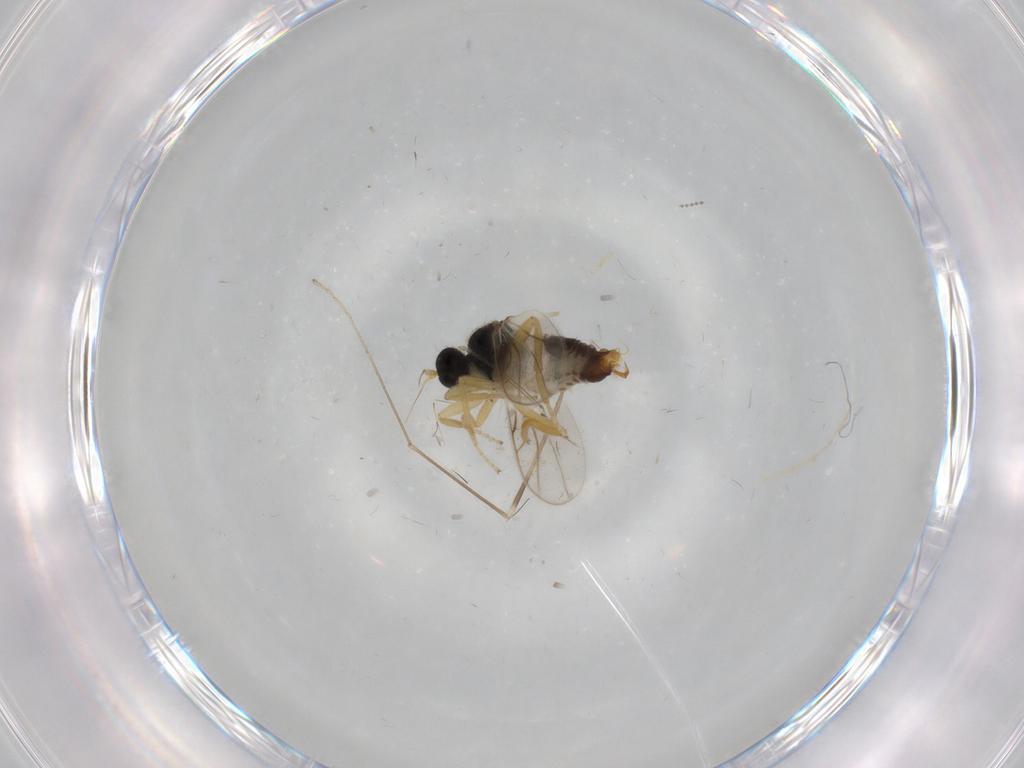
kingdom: Animalia
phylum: Arthropoda
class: Insecta
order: Diptera
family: Hybotidae
